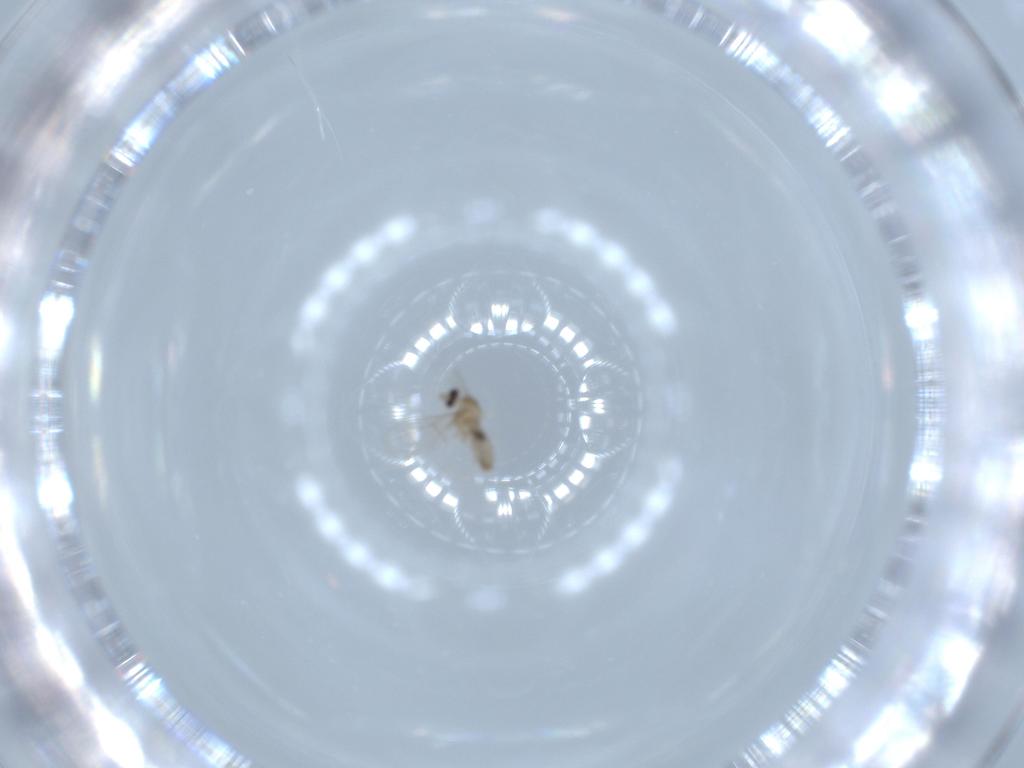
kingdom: Animalia
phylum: Arthropoda
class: Insecta
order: Diptera
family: Cecidomyiidae
